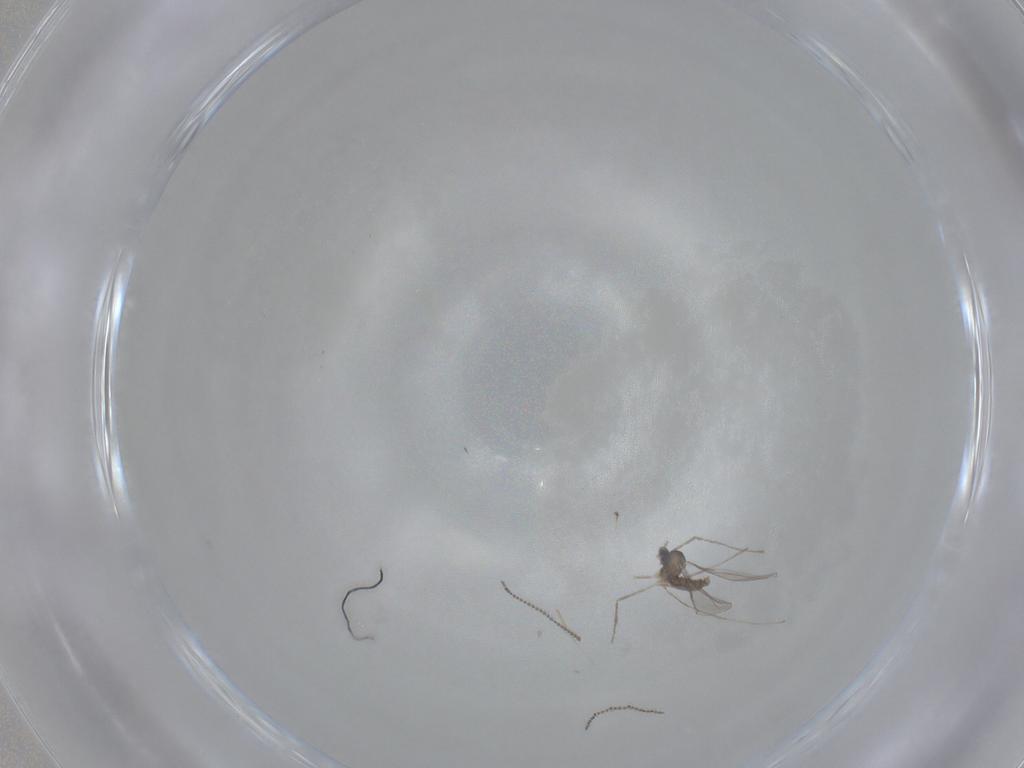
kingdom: Animalia
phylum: Arthropoda
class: Insecta
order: Diptera
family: Cecidomyiidae
